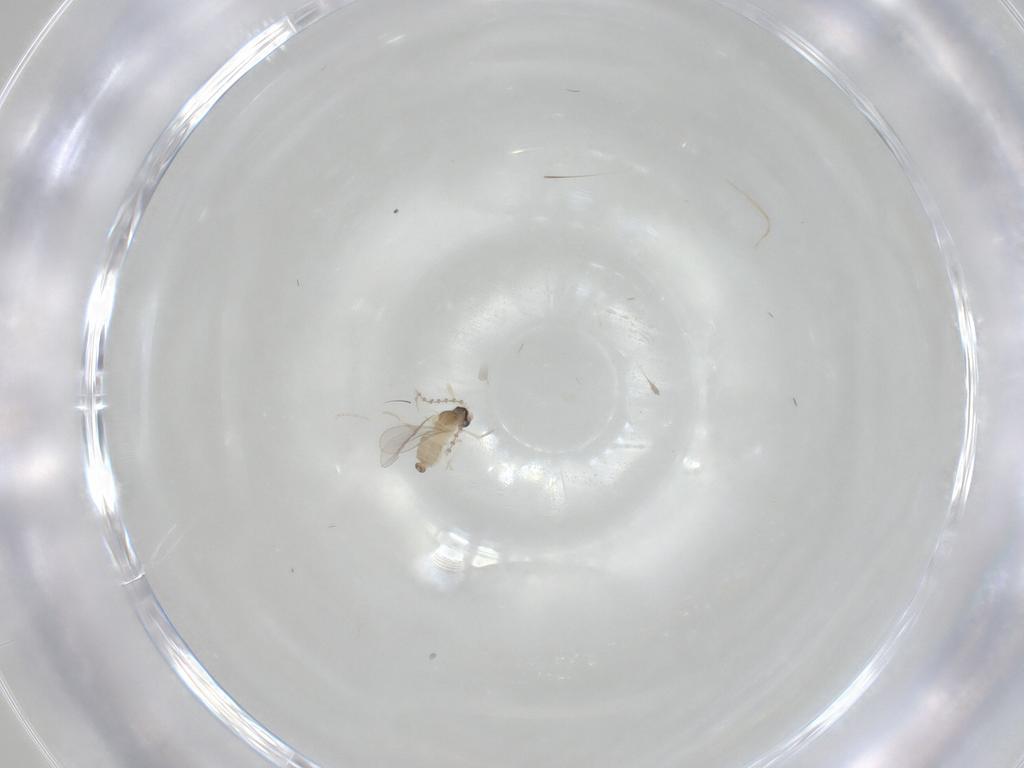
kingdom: Animalia
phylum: Arthropoda
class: Insecta
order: Diptera
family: Cecidomyiidae
